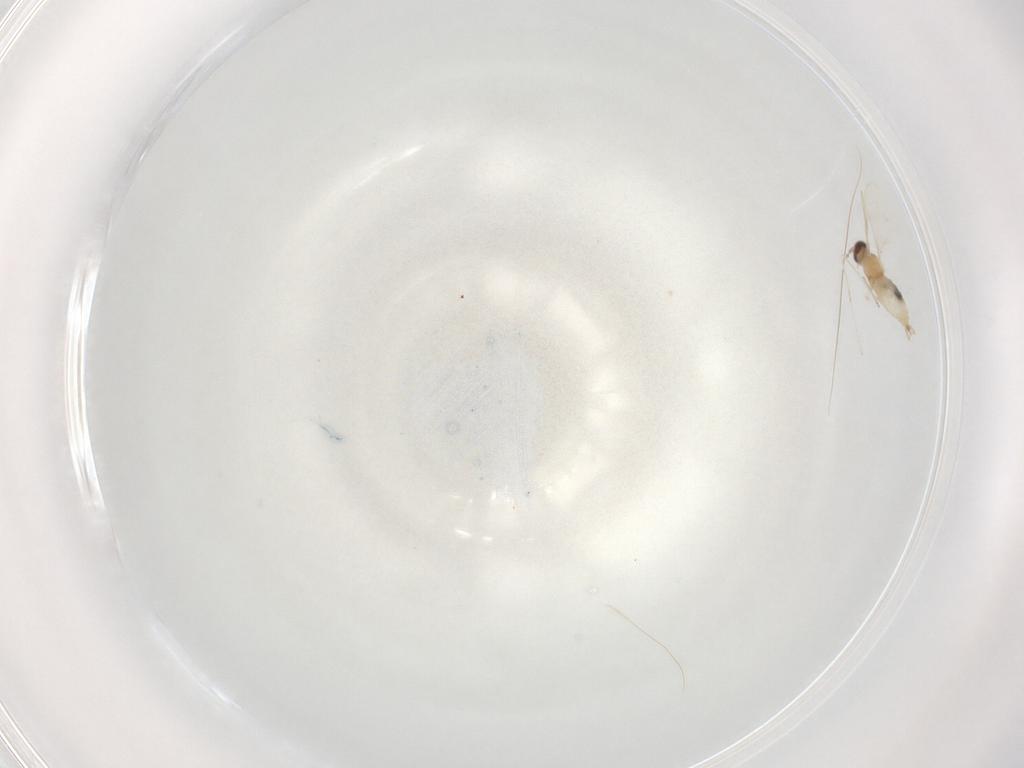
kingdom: Animalia
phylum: Arthropoda
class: Insecta
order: Diptera
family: Cecidomyiidae
